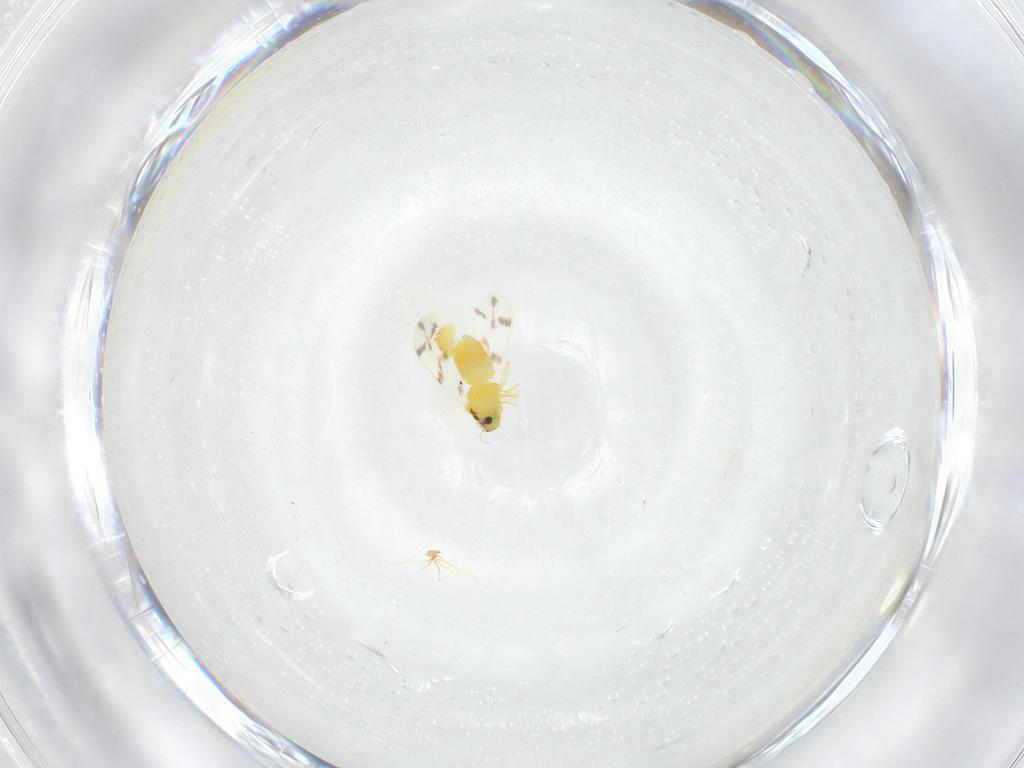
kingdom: Animalia
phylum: Arthropoda
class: Insecta
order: Hemiptera
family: Aleyrodidae
